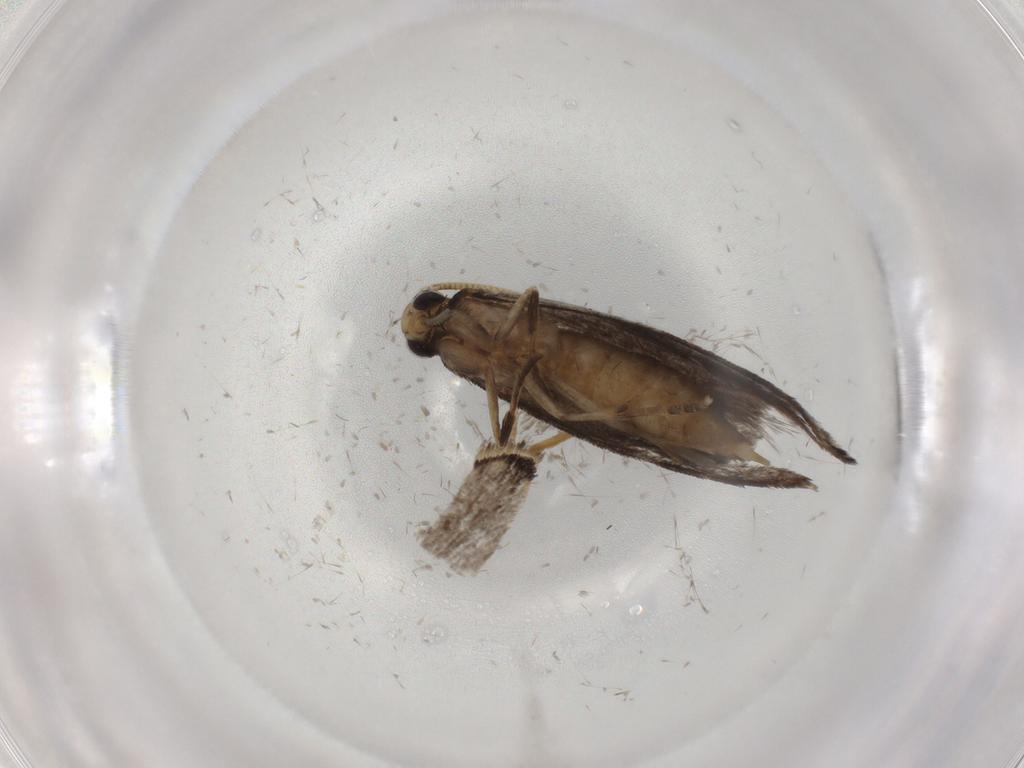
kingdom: Animalia
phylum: Arthropoda
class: Insecta
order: Lepidoptera
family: Tineidae
